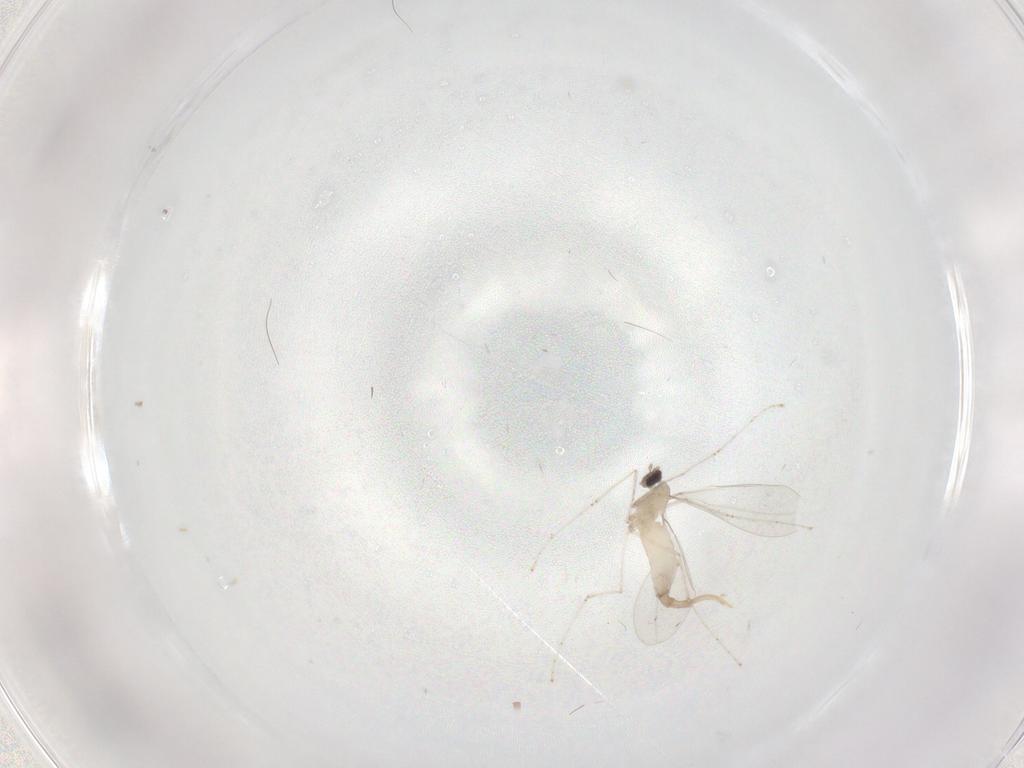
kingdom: Animalia
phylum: Arthropoda
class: Insecta
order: Diptera
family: Cecidomyiidae
